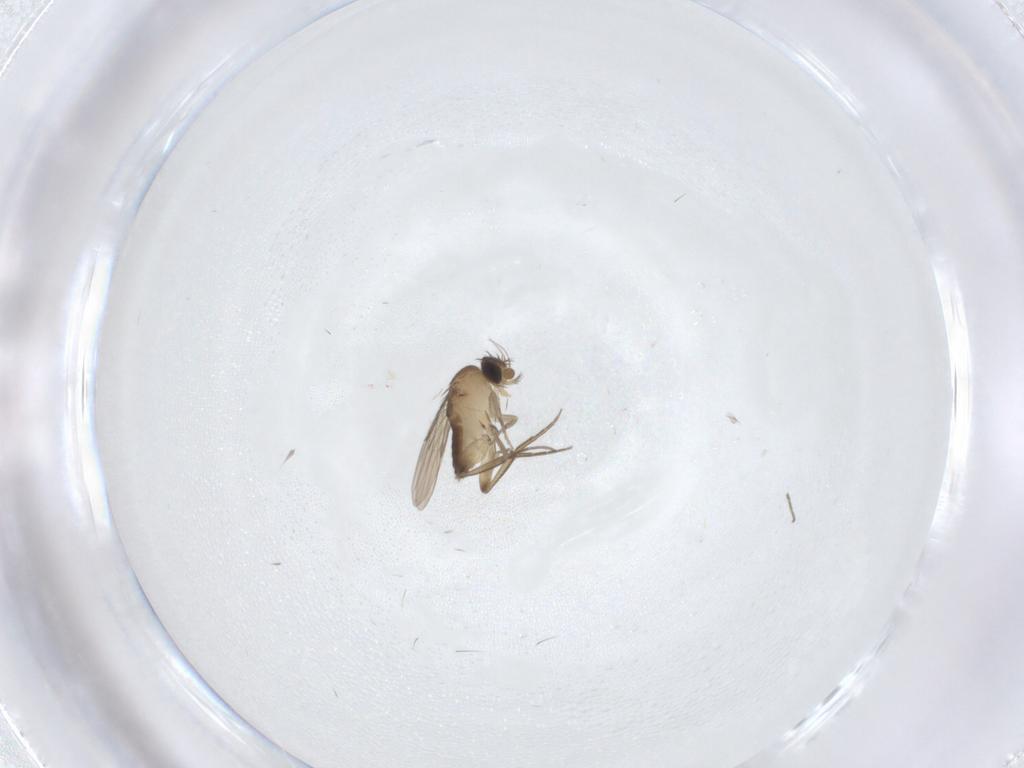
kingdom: Animalia
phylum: Arthropoda
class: Insecta
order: Diptera
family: Phoridae
